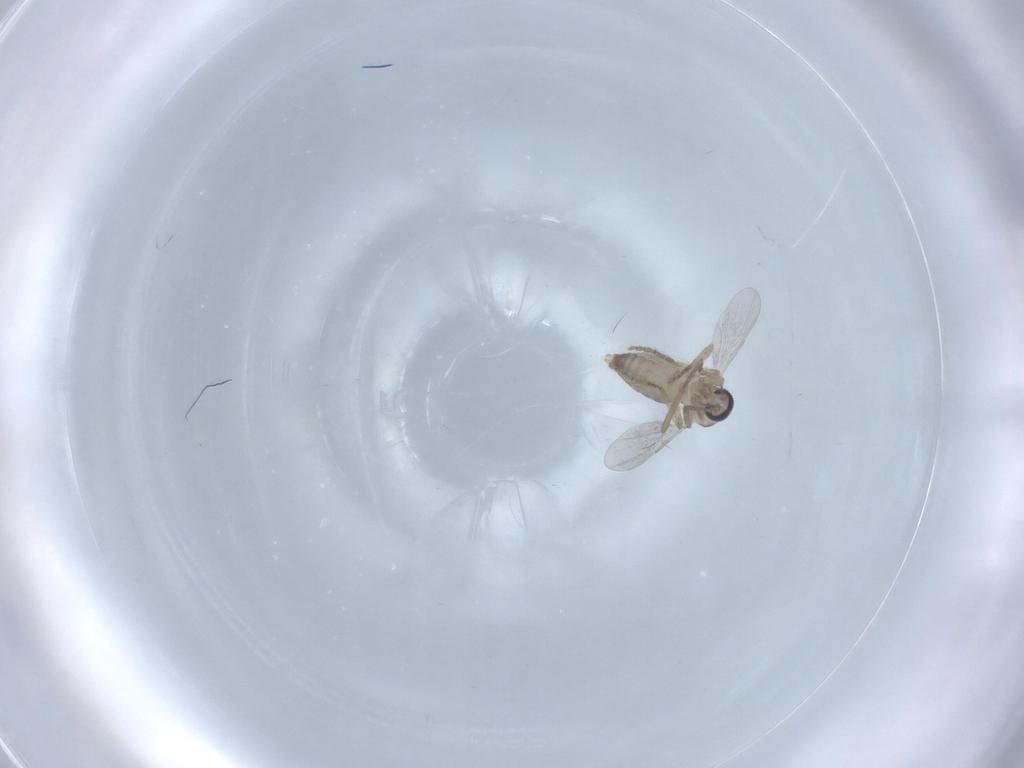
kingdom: Animalia
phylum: Arthropoda
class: Insecta
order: Diptera
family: Ceratopogonidae
